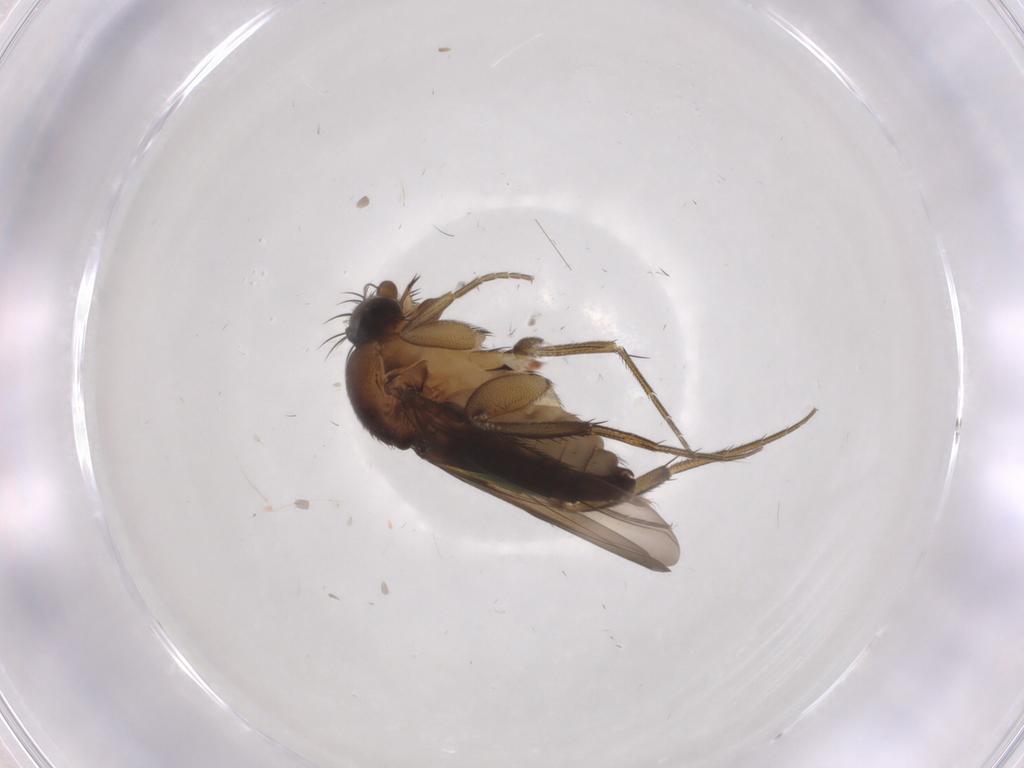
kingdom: Animalia
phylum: Arthropoda
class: Insecta
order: Diptera
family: Phoridae
